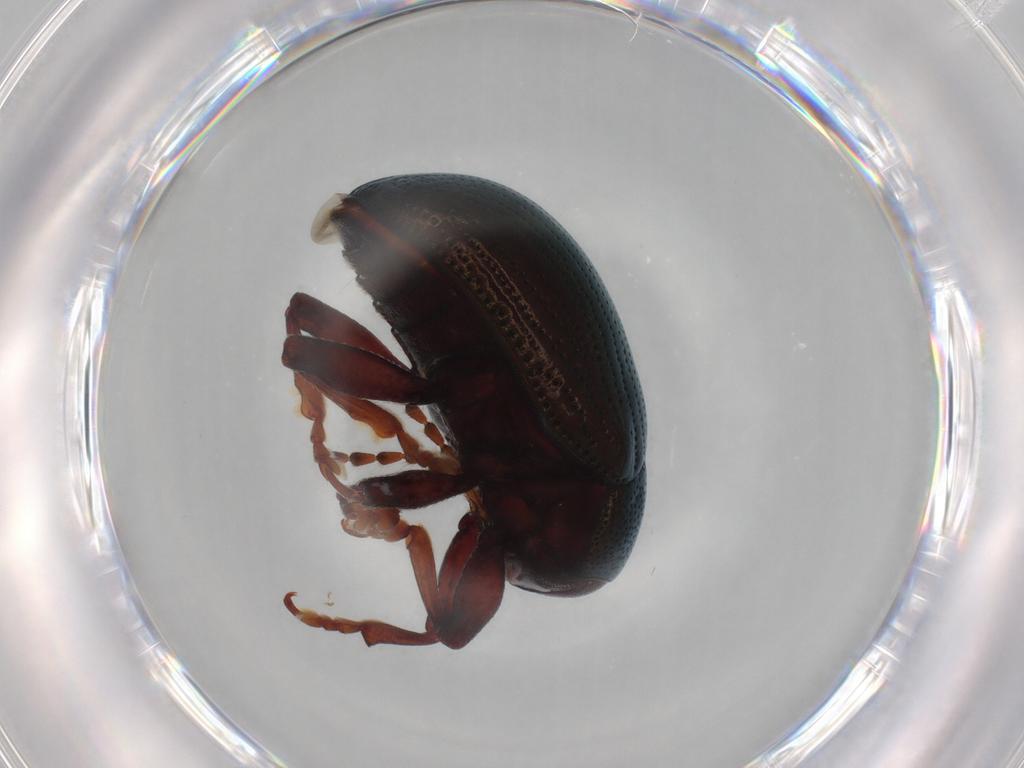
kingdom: Animalia
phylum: Arthropoda
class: Insecta
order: Coleoptera
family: Chrysomelidae
